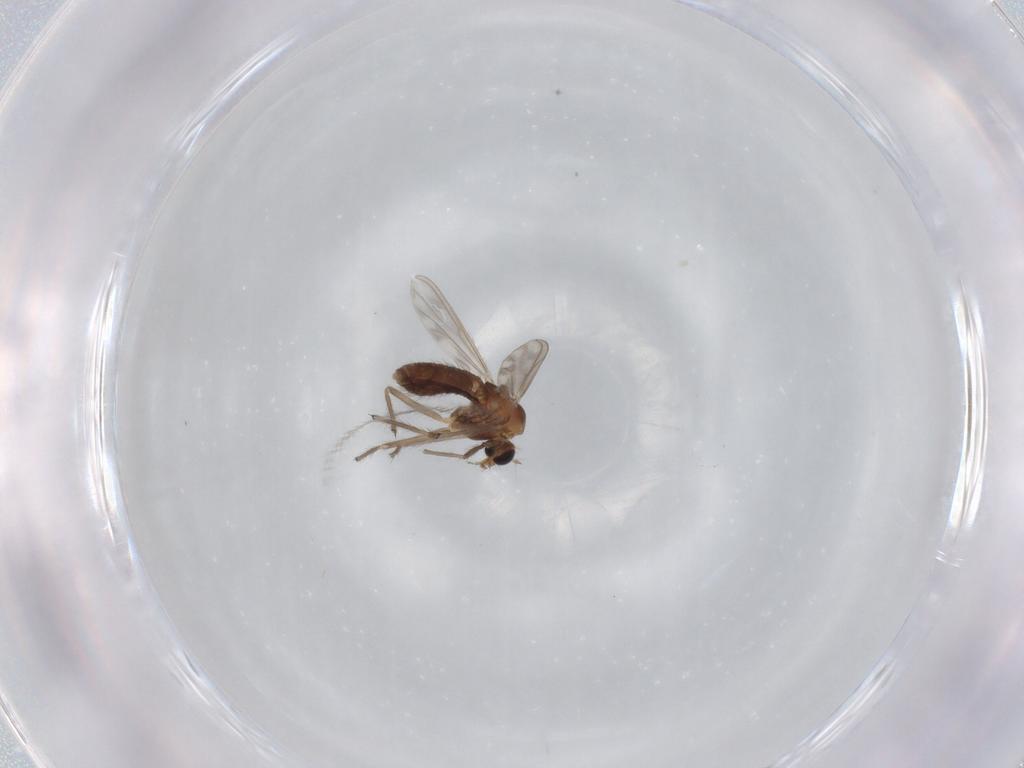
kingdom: Animalia
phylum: Arthropoda
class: Insecta
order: Diptera
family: Chironomidae
